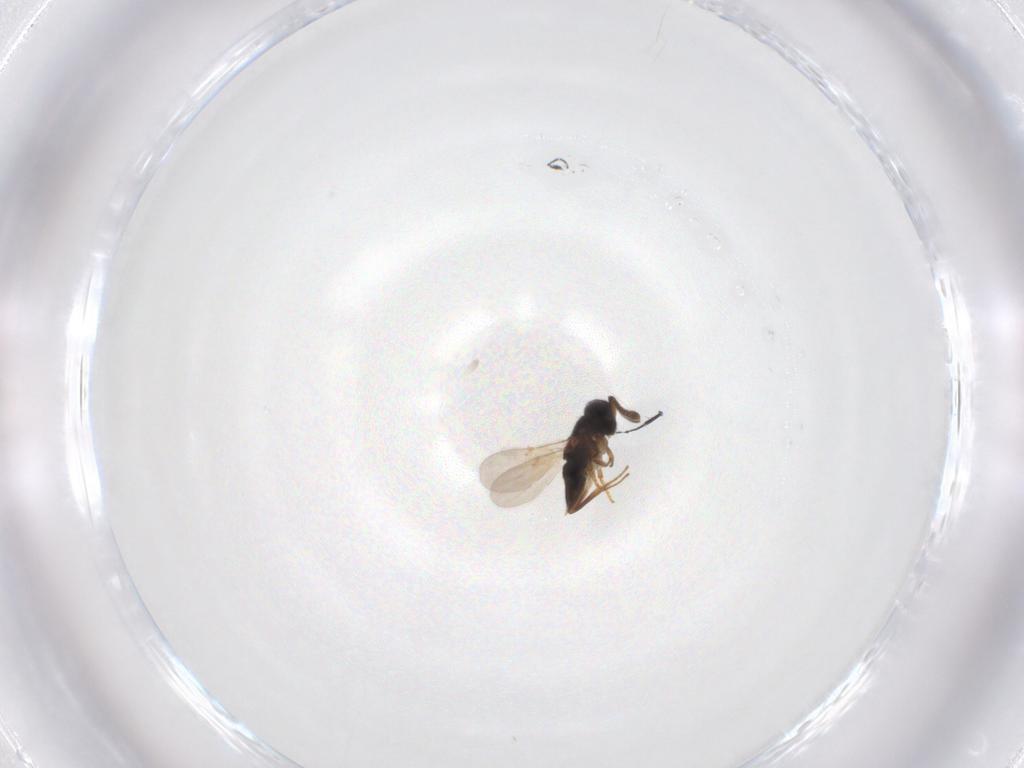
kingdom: Animalia
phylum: Arthropoda
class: Insecta
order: Hymenoptera
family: Encyrtidae
